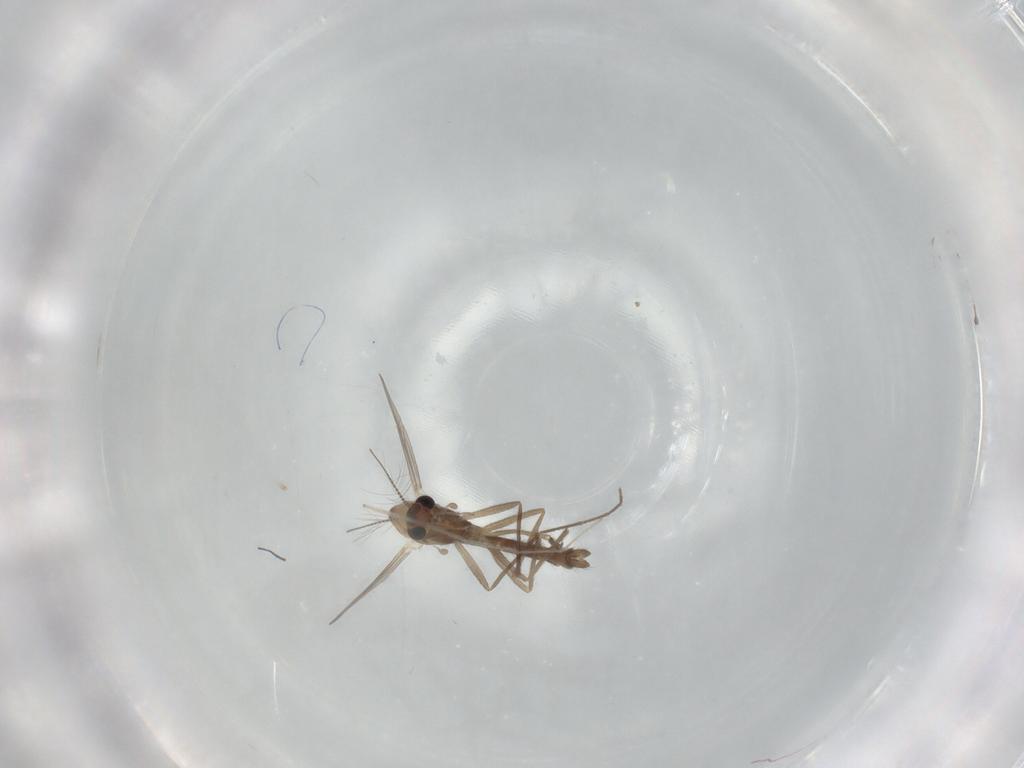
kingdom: Animalia
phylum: Arthropoda
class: Insecta
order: Diptera
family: Chironomidae
